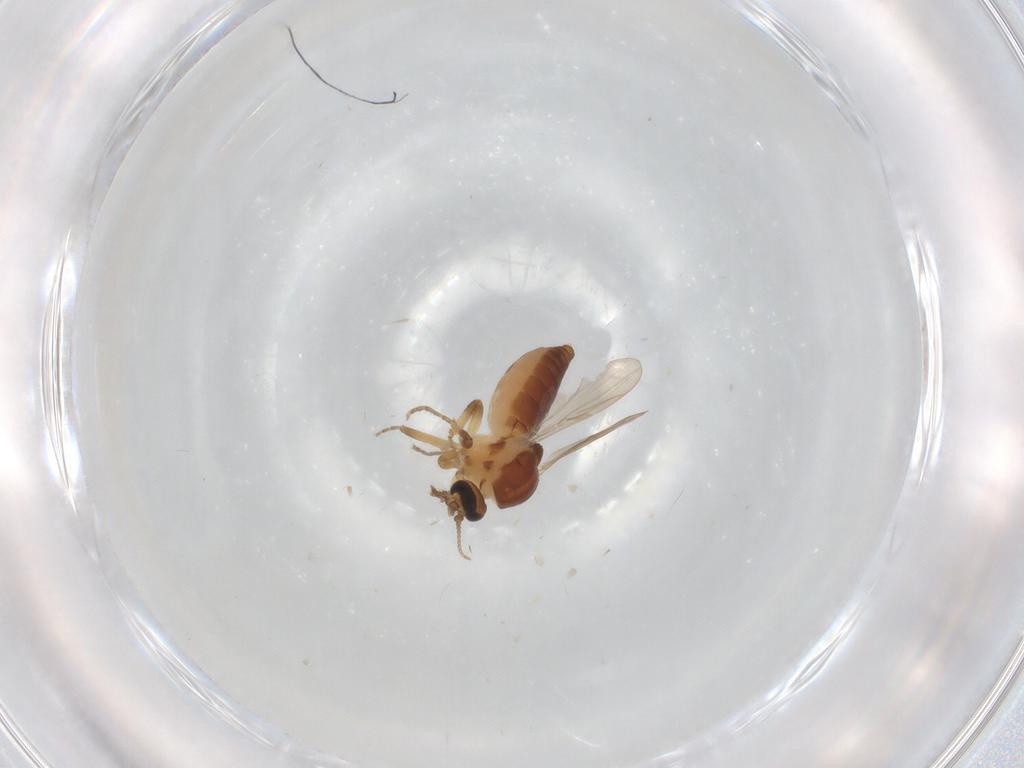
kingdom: Animalia
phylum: Arthropoda
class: Insecta
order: Diptera
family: Ceratopogonidae
